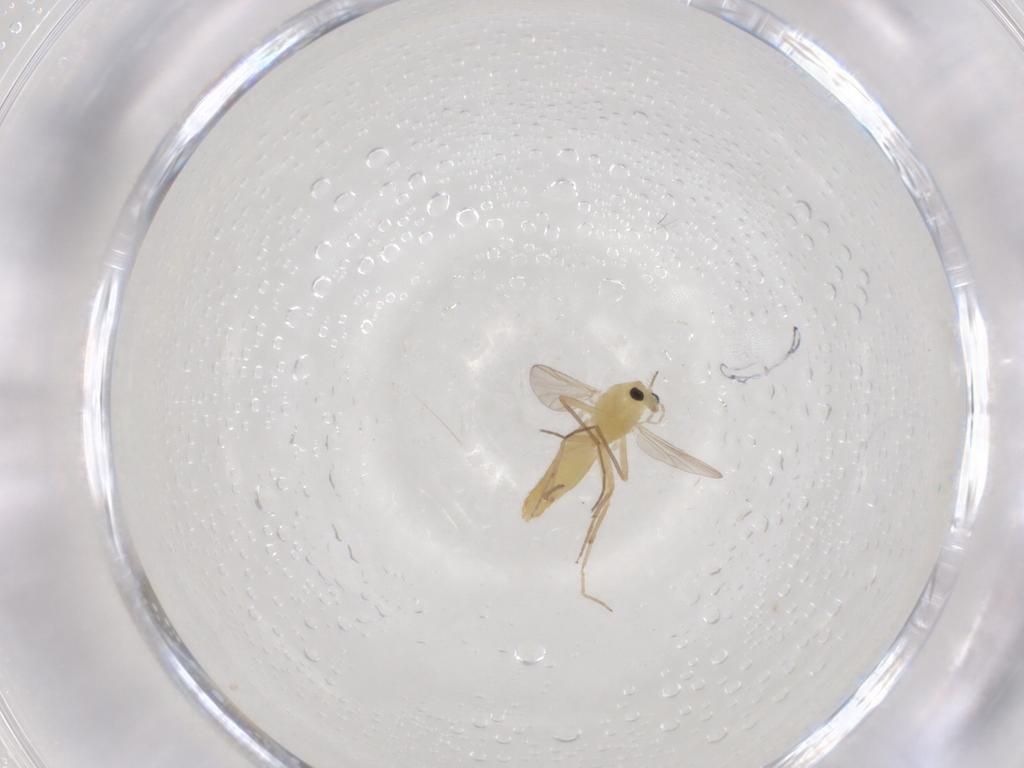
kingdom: Animalia
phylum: Arthropoda
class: Insecta
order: Diptera
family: Chironomidae
